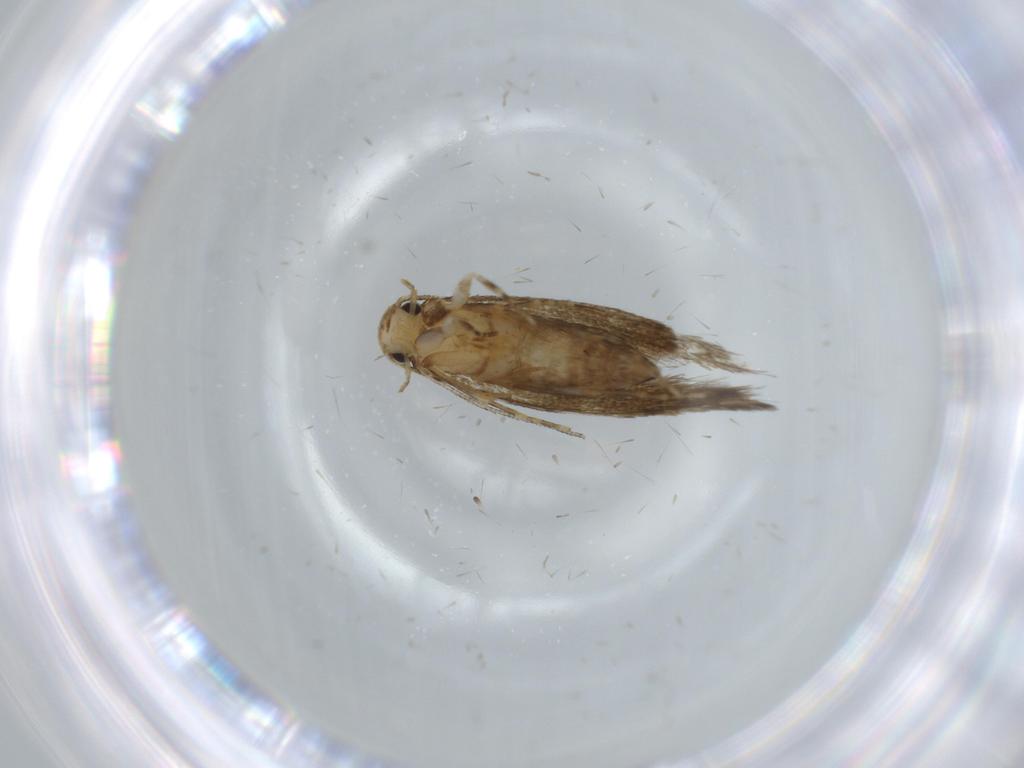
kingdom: Animalia
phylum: Arthropoda
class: Insecta
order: Lepidoptera
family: Tineidae
